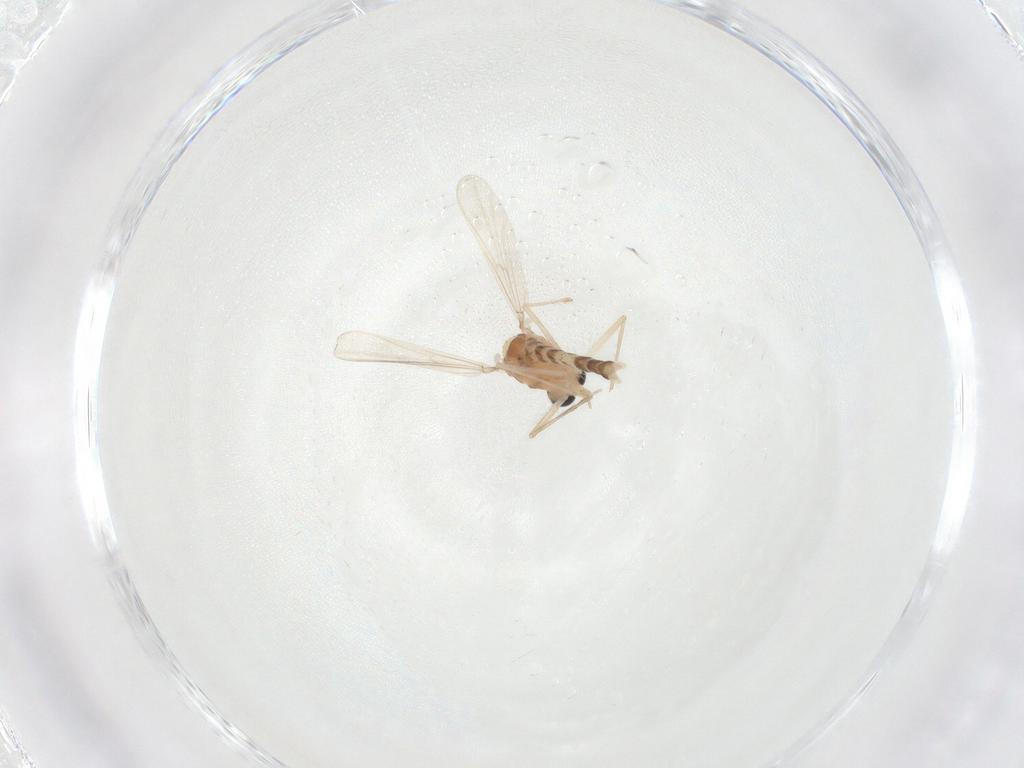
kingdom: Animalia
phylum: Arthropoda
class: Insecta
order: Diptera
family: Psychodidae
